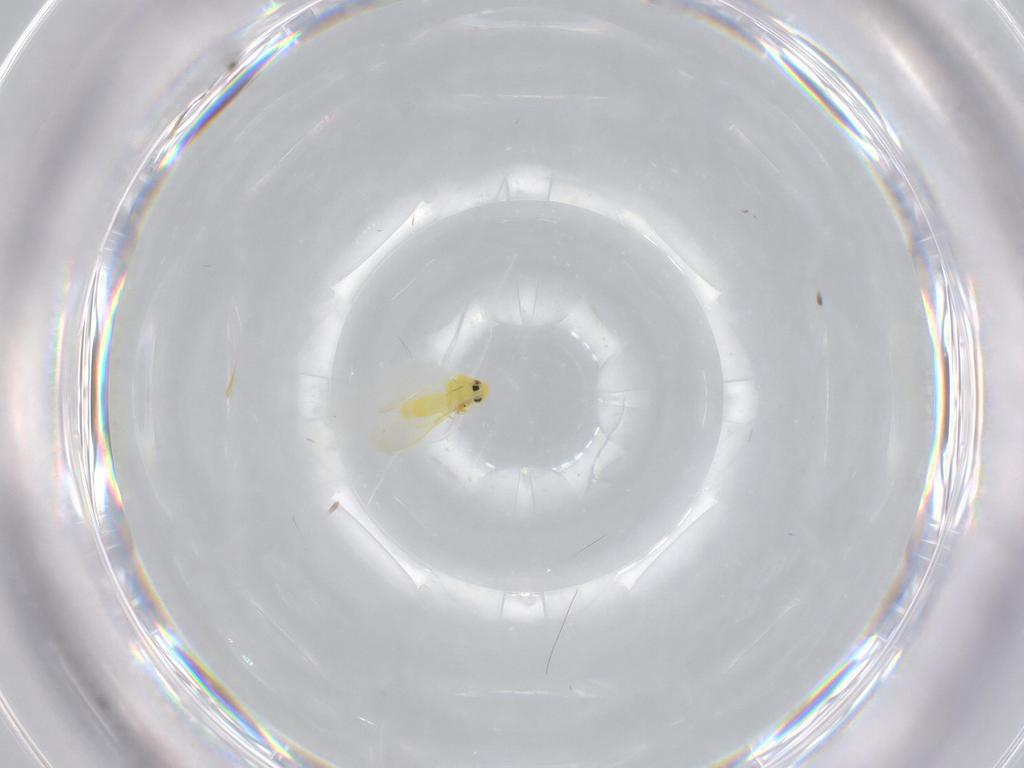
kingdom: Animalia
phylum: Arthropoda
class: Insecta
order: Hemiptera
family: Aleyrodidae
